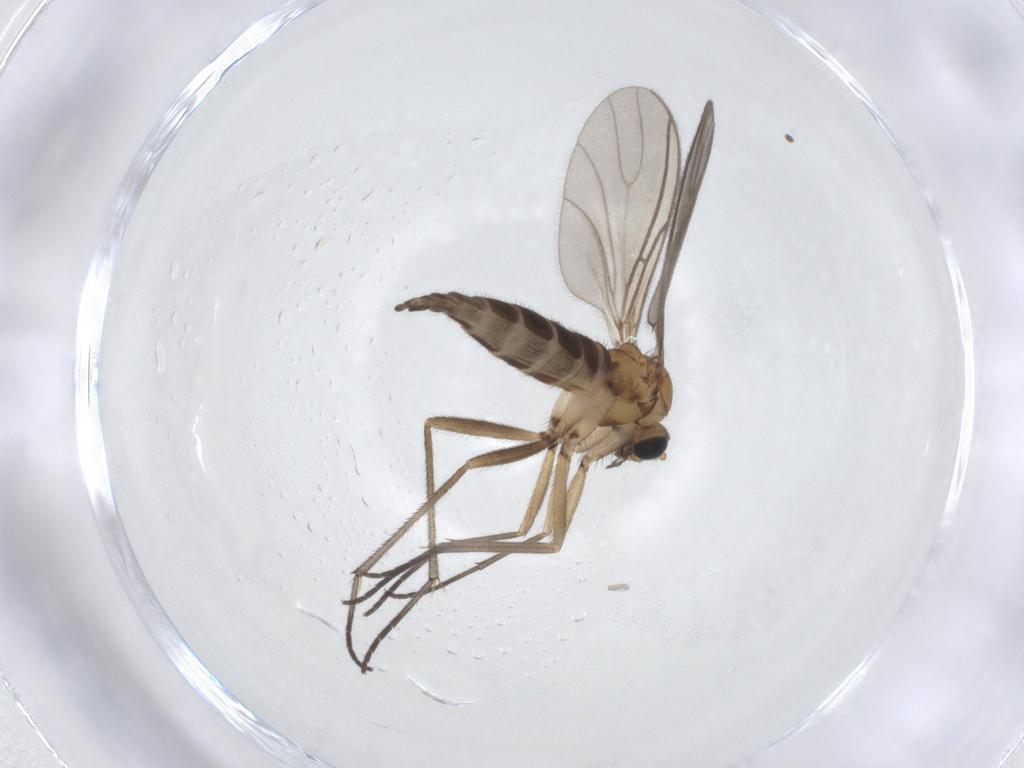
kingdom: Animalia
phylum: Arthropoda
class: Insecta
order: Diptera
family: Sciaridae
